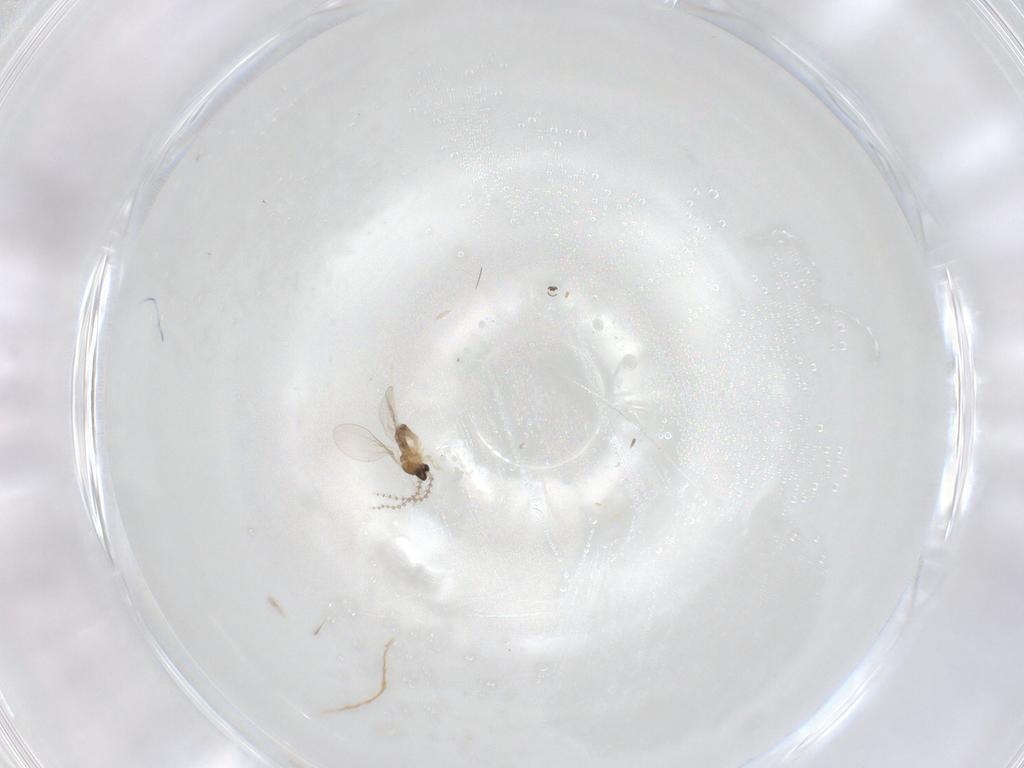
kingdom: Animalia
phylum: Arthropoda
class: Insecta
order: Diptera
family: Cecidomyiidae
